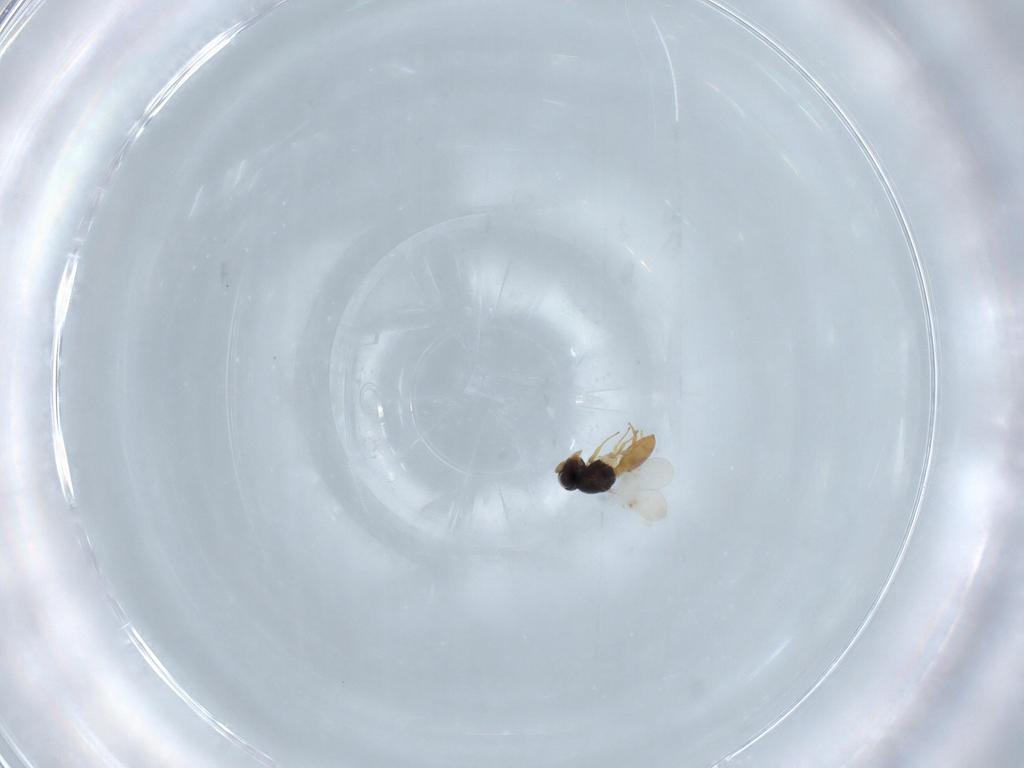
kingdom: Animalia
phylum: Arthropoda
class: Insecta
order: Hymenoptera
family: Scelionidae
